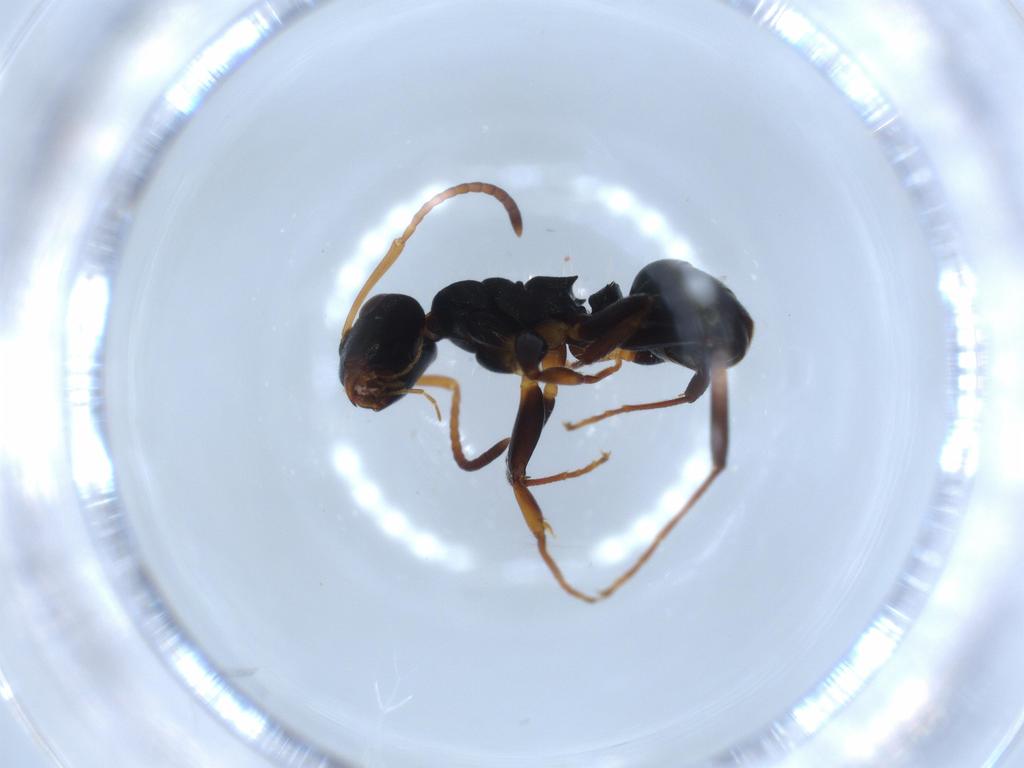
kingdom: Animalia
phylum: Arthropoda
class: Insecta
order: Hymenoptera
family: Formicidae
